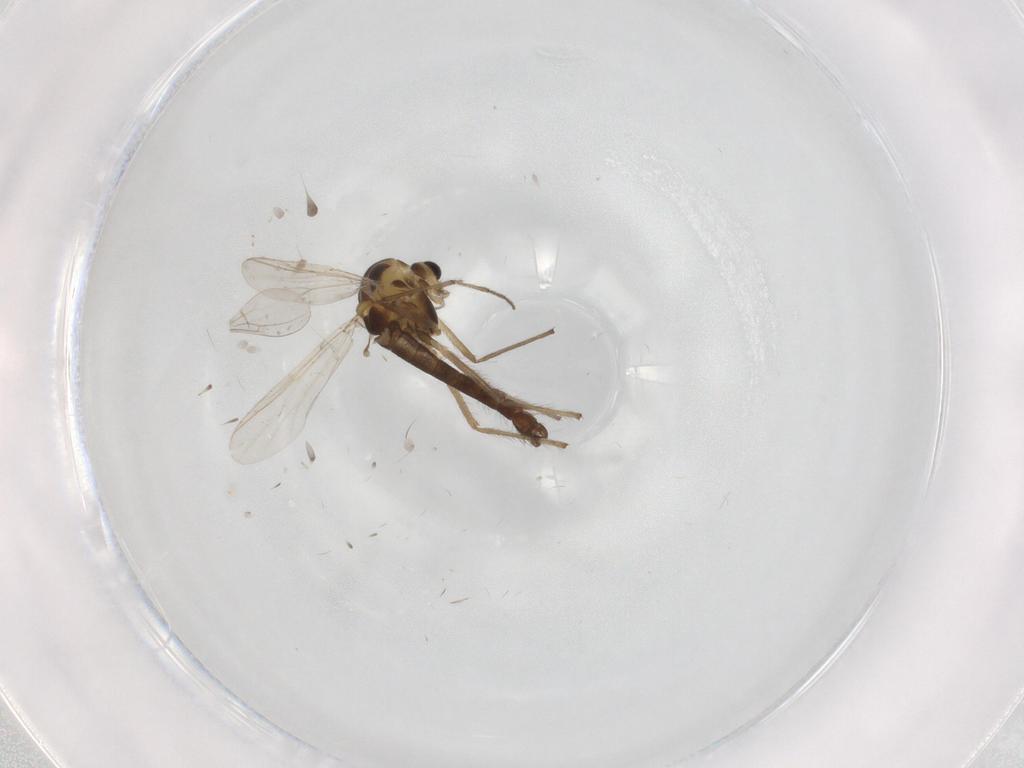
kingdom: Animalia
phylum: Arthropoda
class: Insecta
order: Diptera
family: Chironomidae
